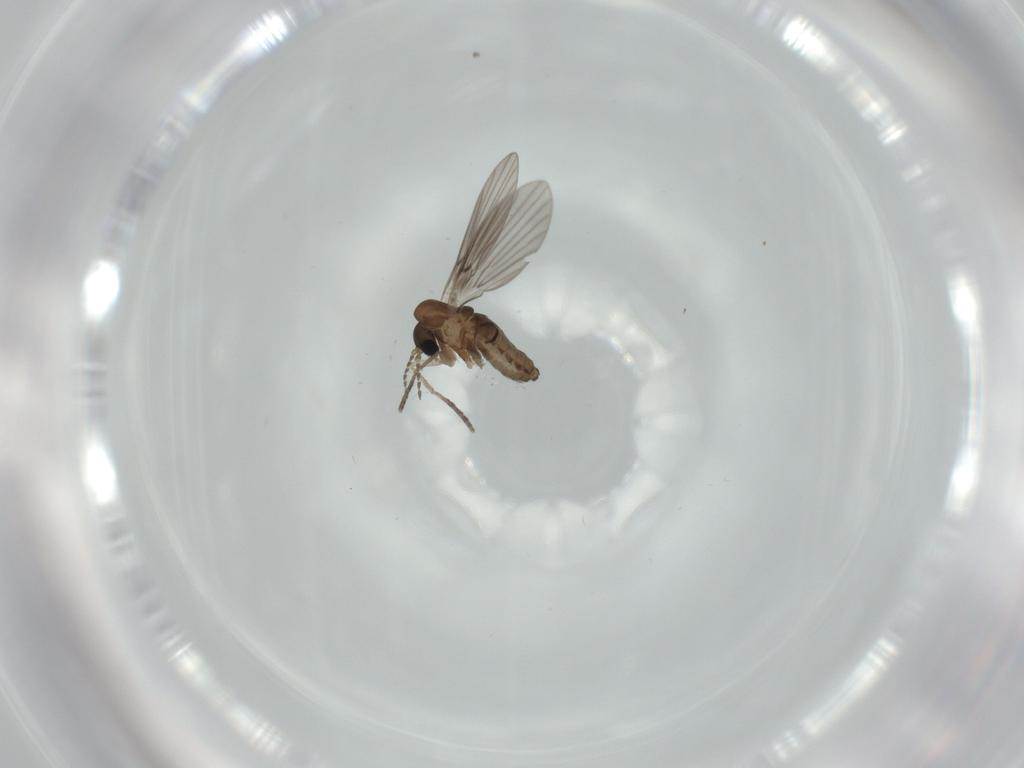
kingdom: Animalia
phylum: Arthropoda
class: Insecta
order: Diptera
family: Psychodidae
